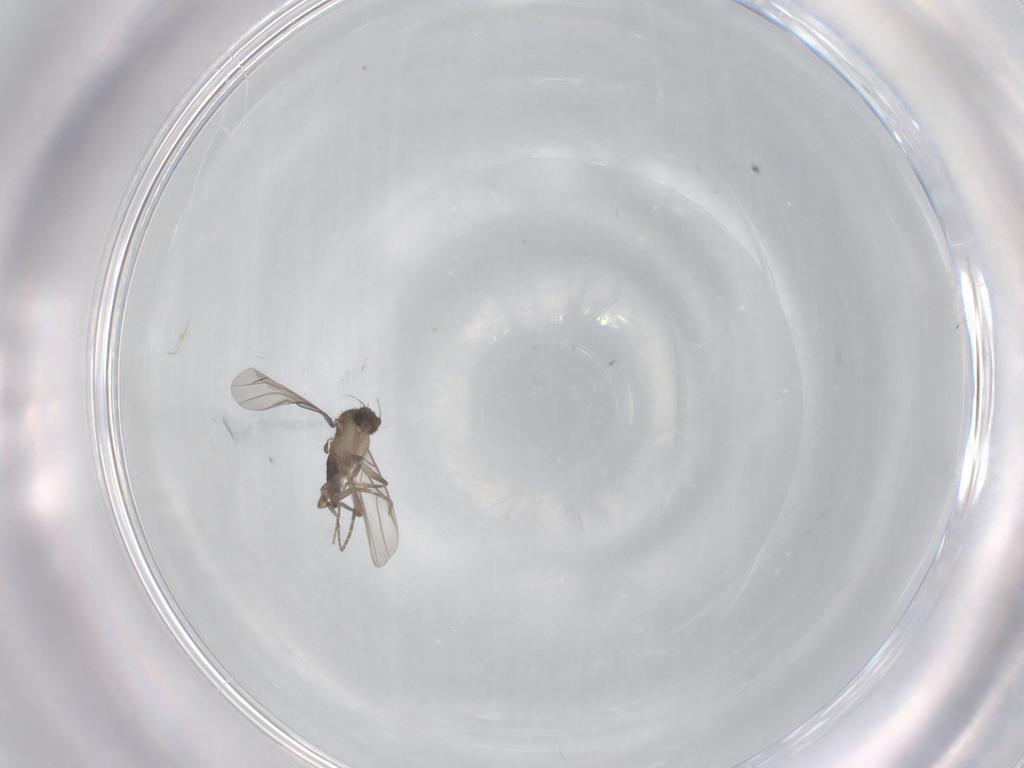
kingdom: Animalia
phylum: Arthropoda
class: Insecta
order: Diptera
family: Phoridae
